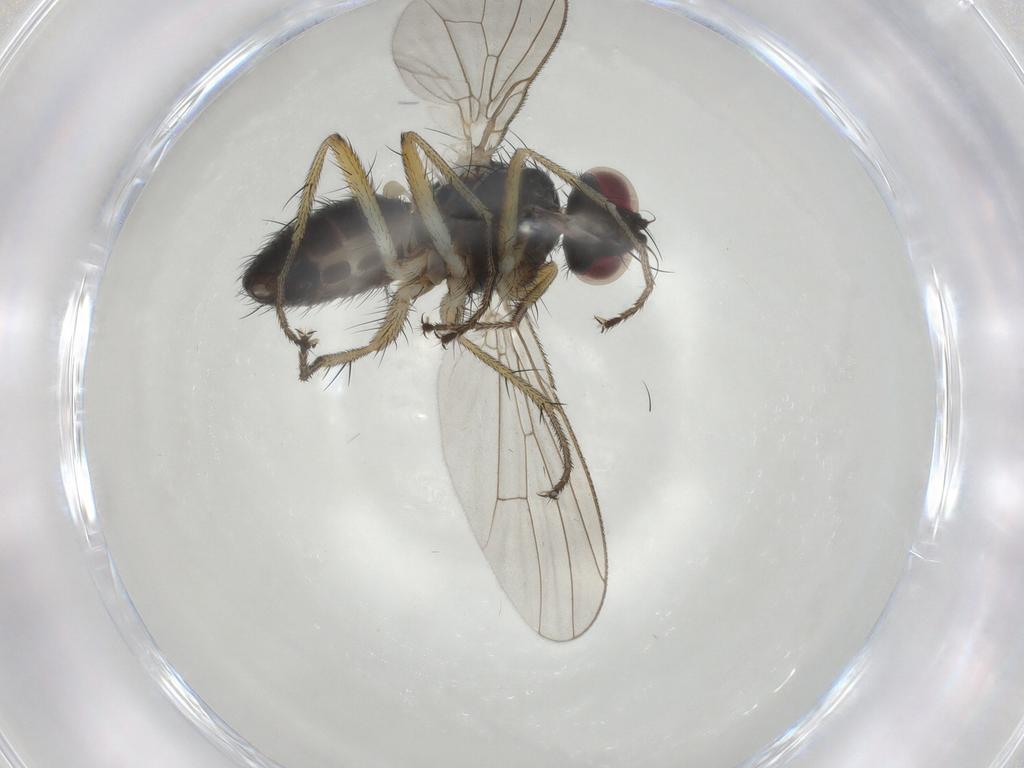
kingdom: Animalia
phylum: Arthropoda
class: Insecta
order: Diptera
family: Muscidae
